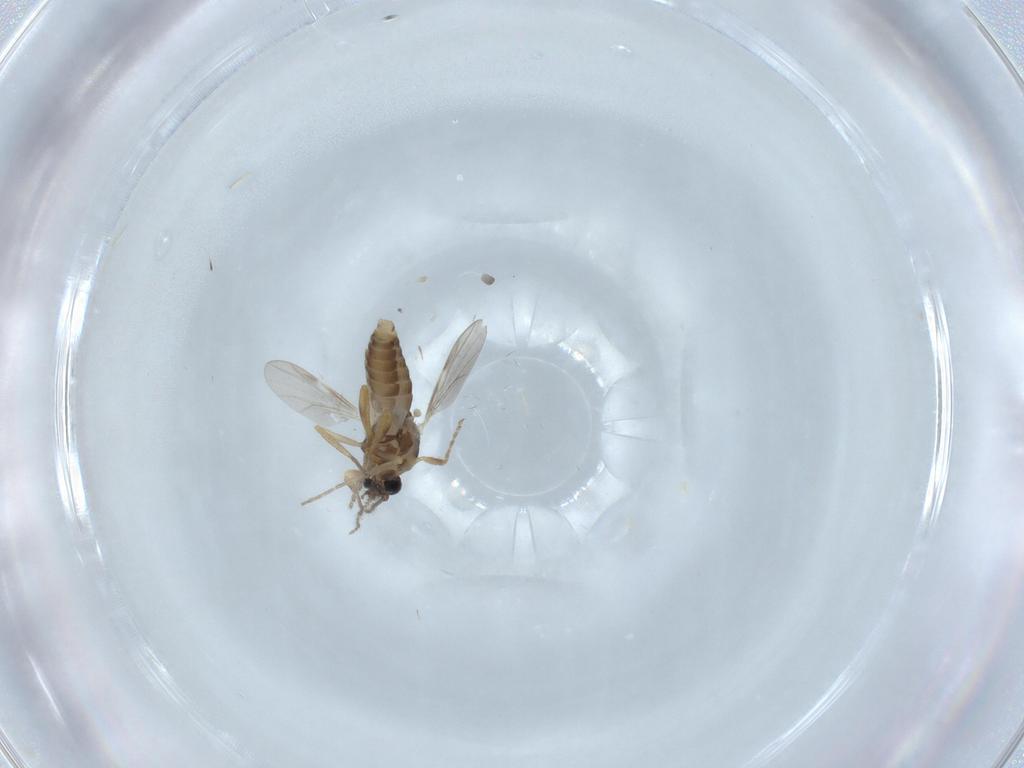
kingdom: Animalia
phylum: Arthropoda
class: Insecta
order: Diptera
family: Ceratopogonidae
